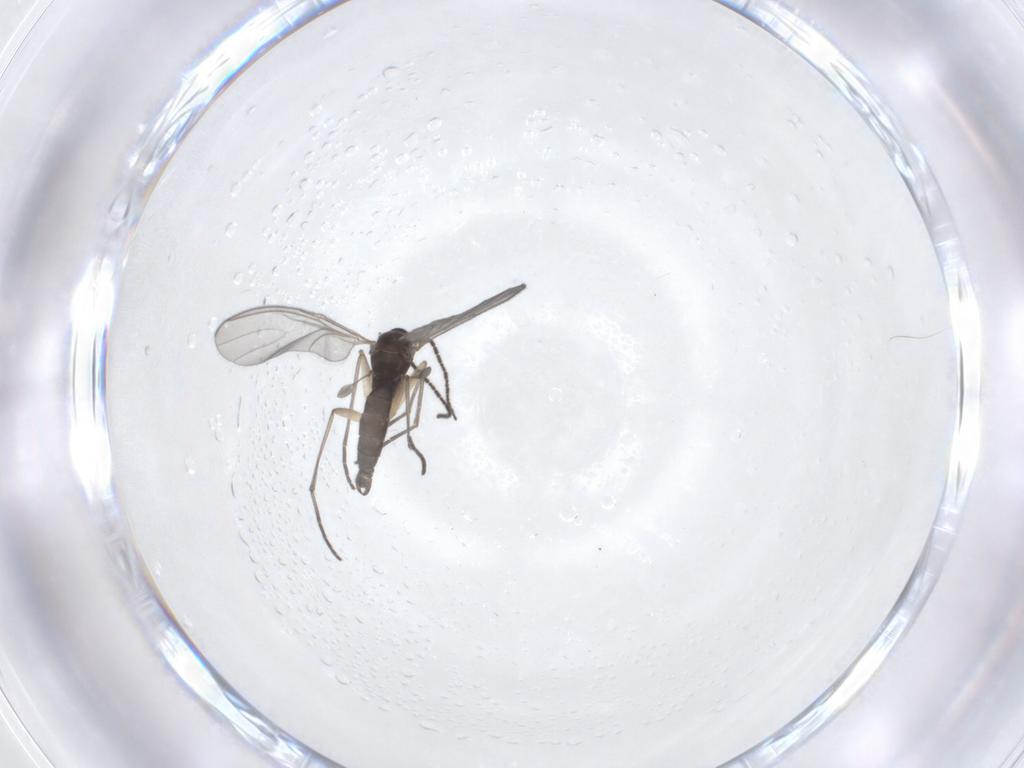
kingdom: Animalia
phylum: Arthropoda
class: Insecta
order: Diptera
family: Sciaridae
